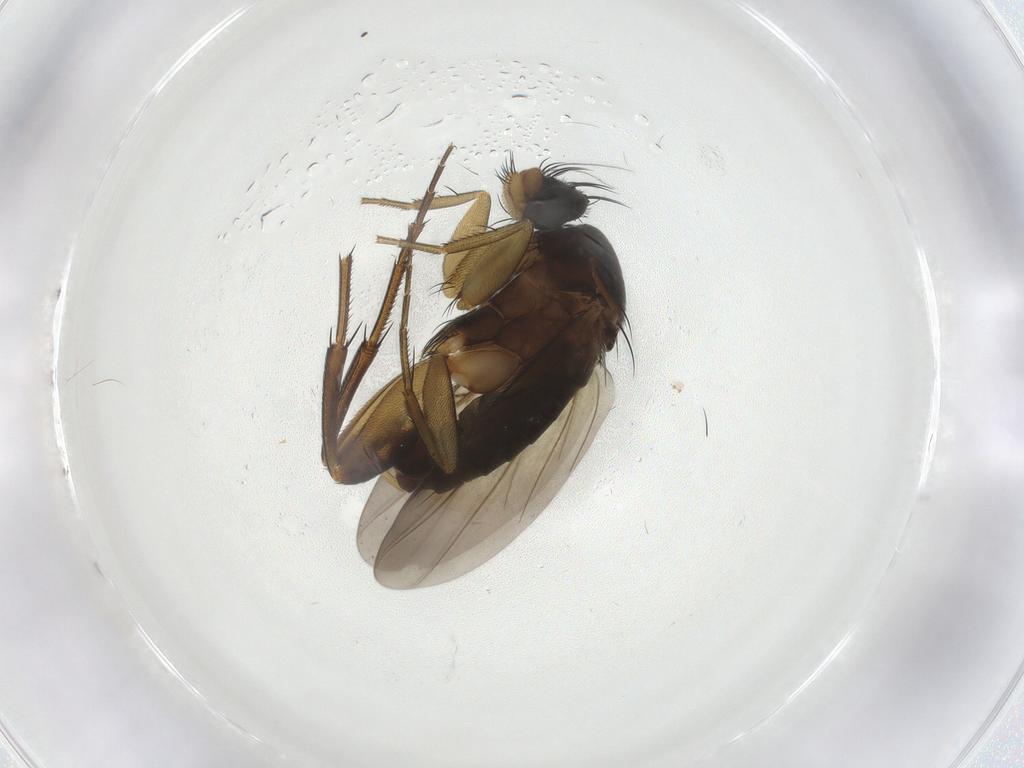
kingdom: Animalia
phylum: Arthropoda
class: Insecta
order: Diptera
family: Phoridae
